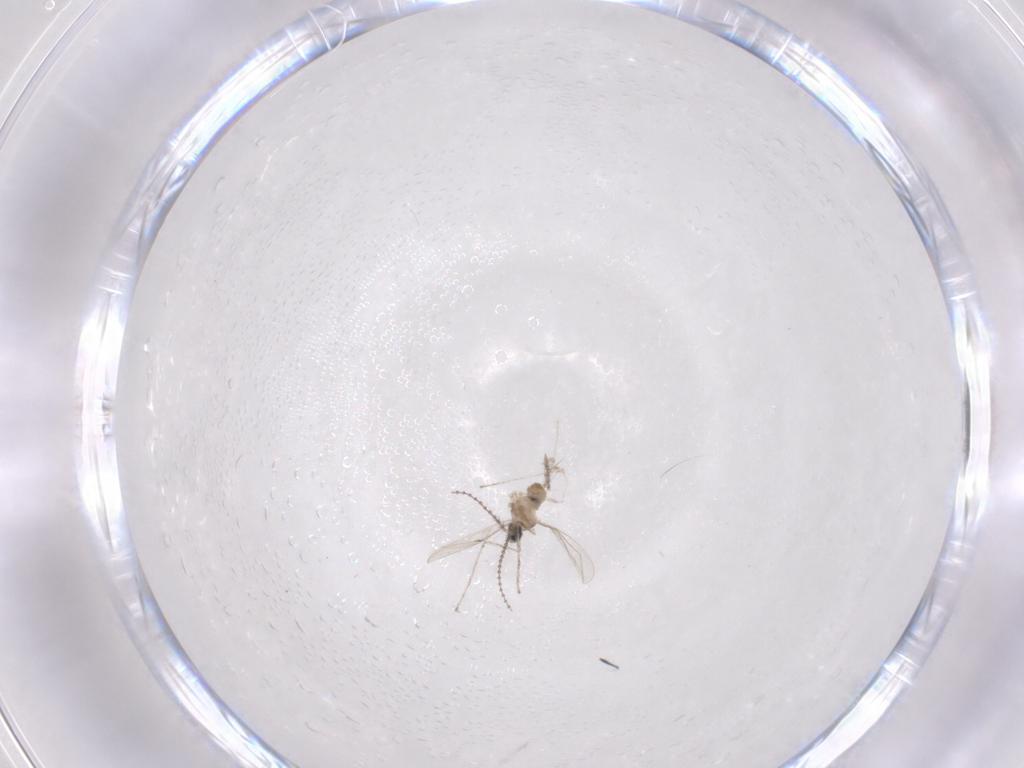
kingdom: Animalia
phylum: Arthropoda
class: Insecta
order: Diptera
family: Cecidomyiidae
